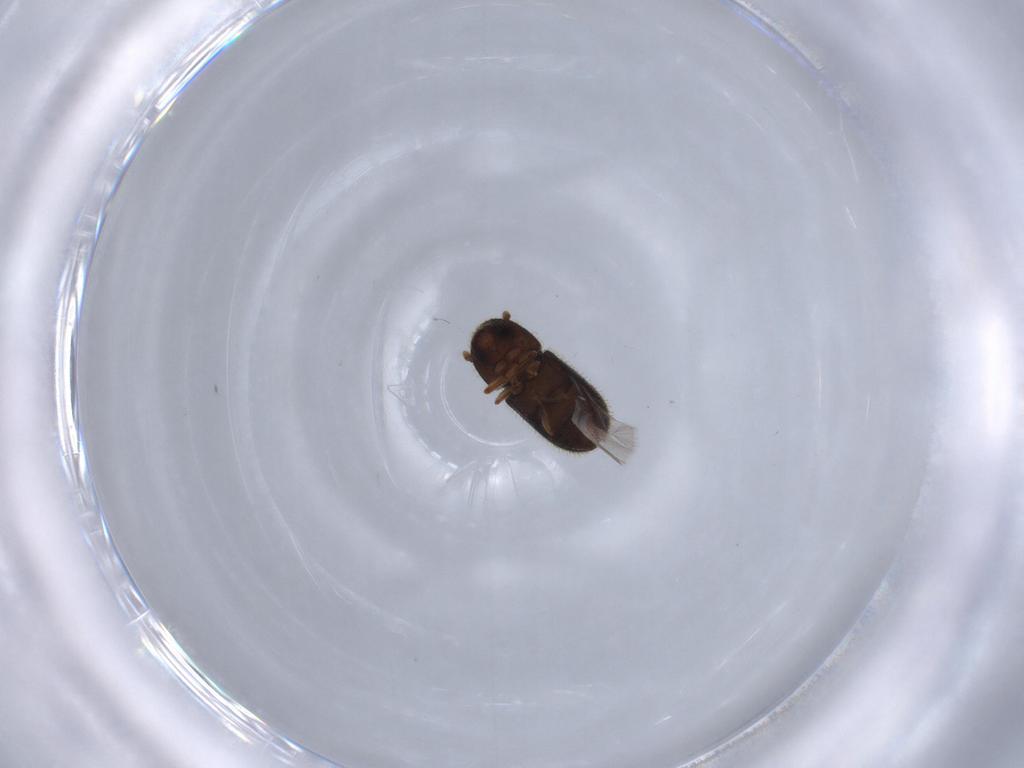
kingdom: Animalia
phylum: Arthropoda
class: Insecta
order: Coleoptera
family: Curculionidae
